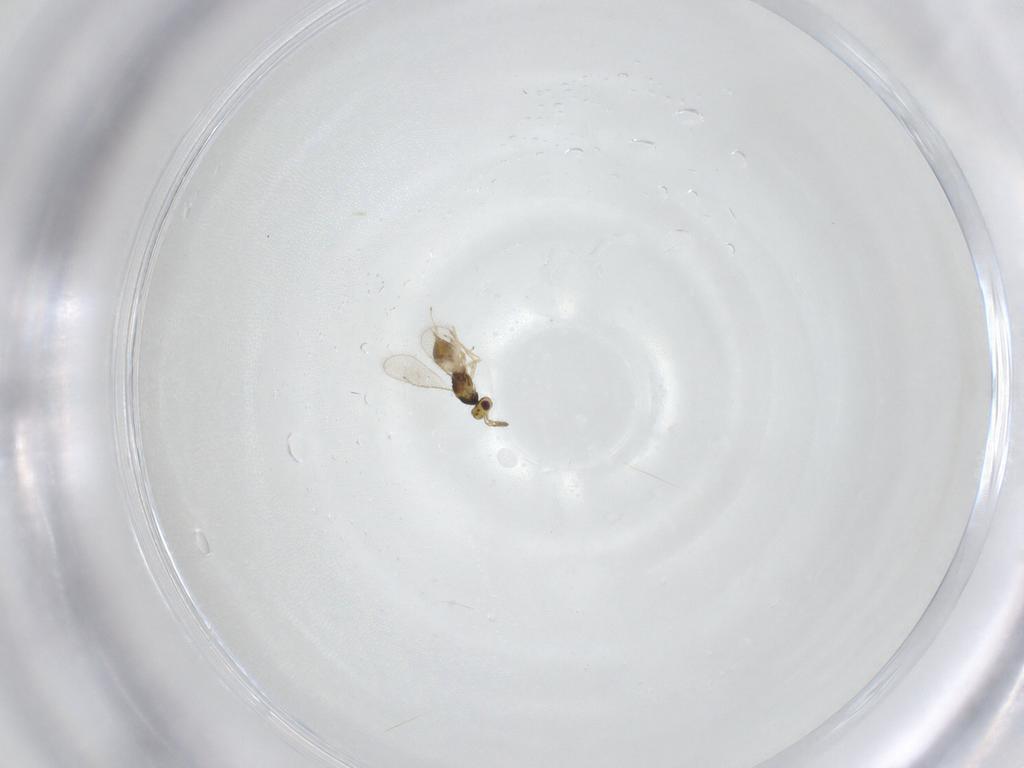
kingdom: Animalia
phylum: Arthropoda
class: Insecta
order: Hymenoptera
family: Eulophidae
